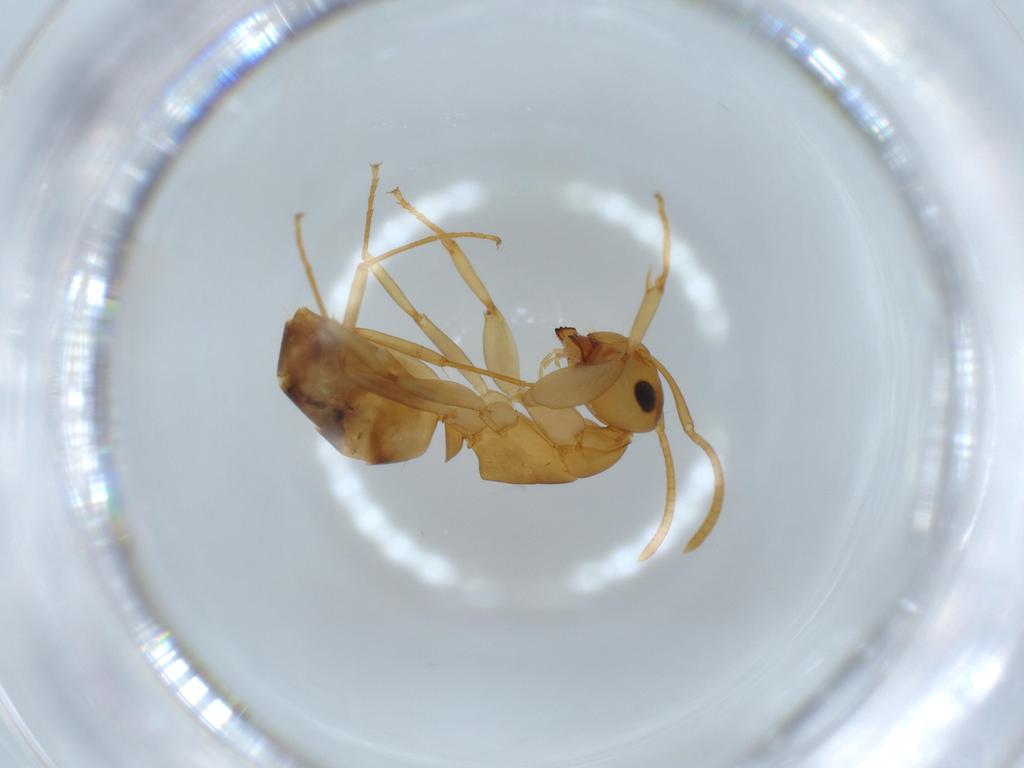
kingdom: Animalia
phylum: Arthropoda
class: Insecta
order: Hymenoptera
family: Formicidae
